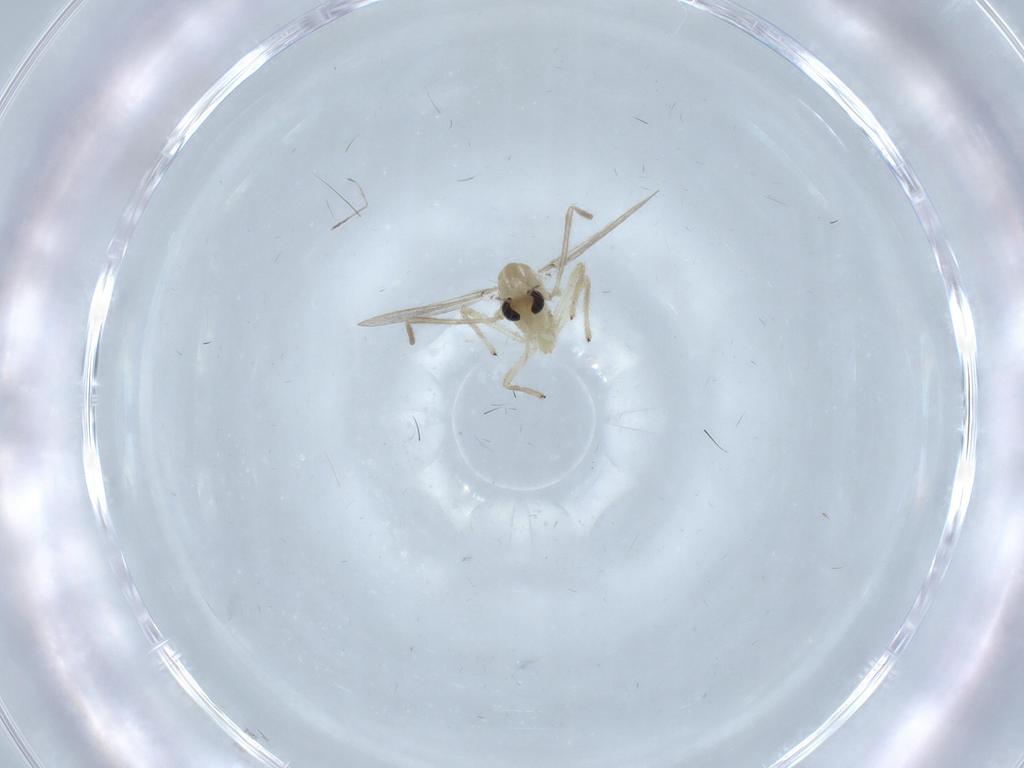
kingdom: Animalia
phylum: Arthropoda
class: Insecta
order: Diptera
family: Cecidomyiidae
